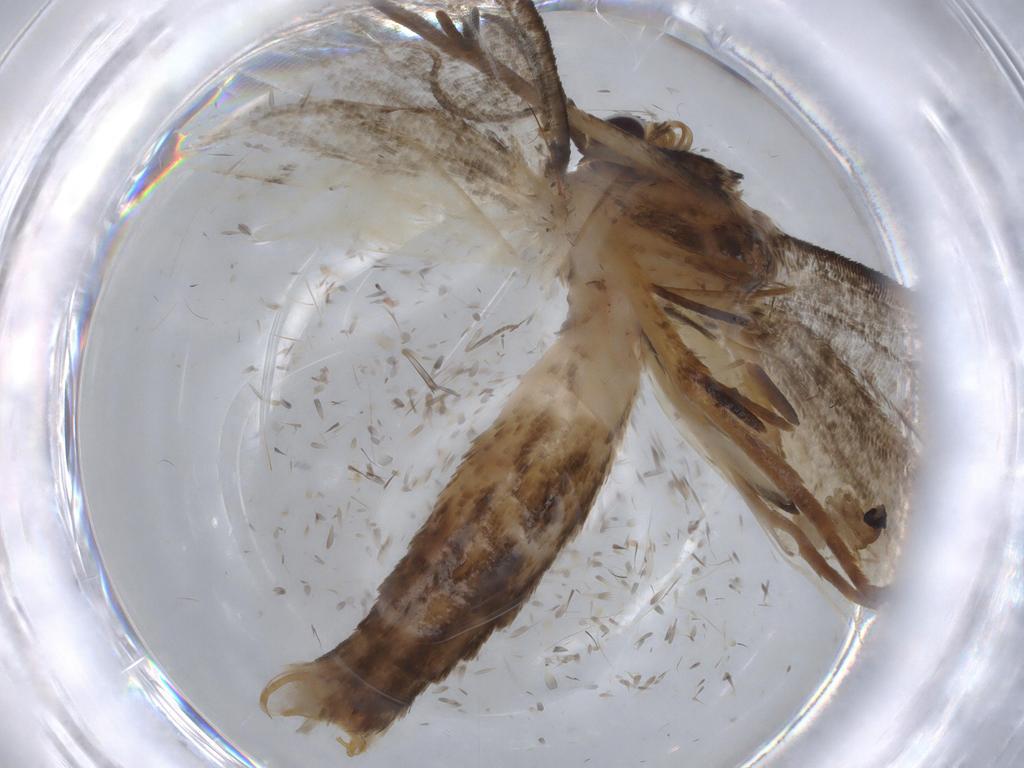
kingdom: Animalia
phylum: Arthropoda
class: Insecta
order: Lepidoptera
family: Noctuidae
